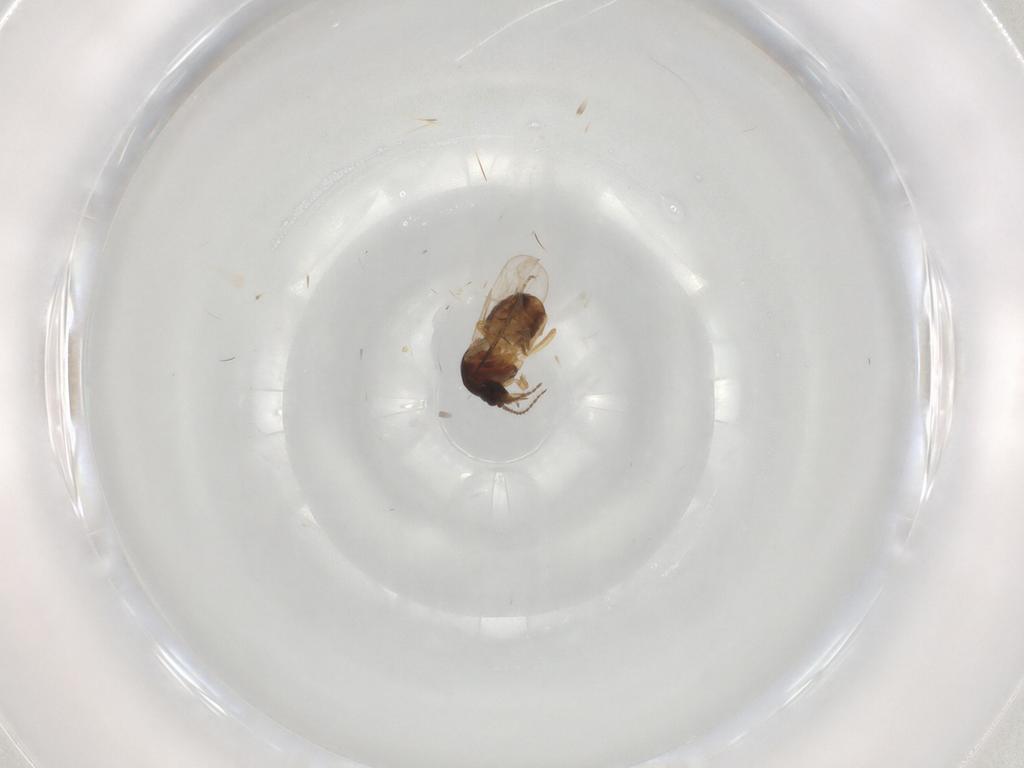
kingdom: Animalia
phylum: Arthropoda
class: Insecta
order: Diptera
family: Ceratopogonidae
